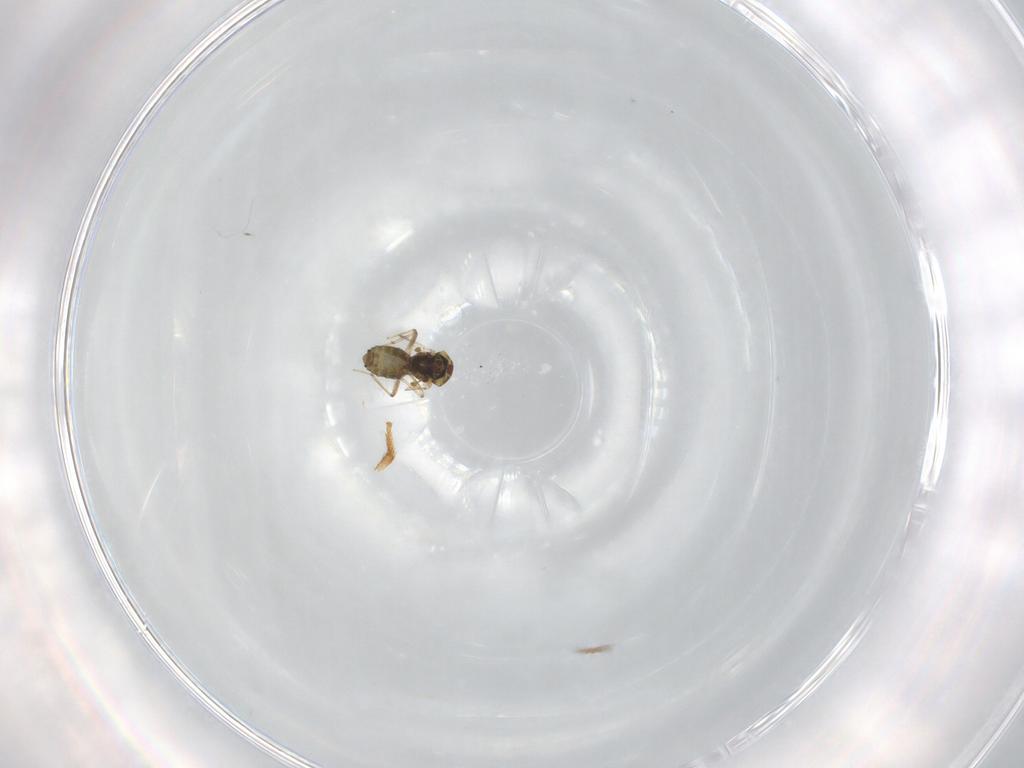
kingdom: Animalia
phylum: Arthropoda
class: Insecta
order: Diptera
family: Ceratopogonidae
